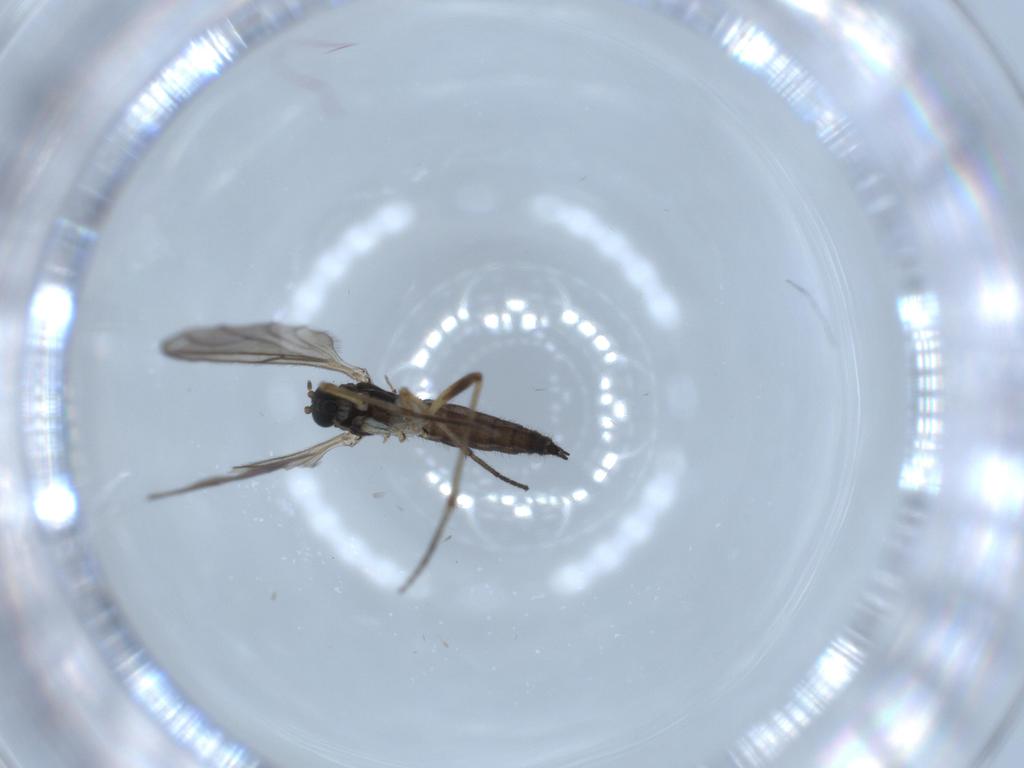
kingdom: Animalia
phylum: Arthropoda
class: Insecta
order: Diptera
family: Sciaridae
